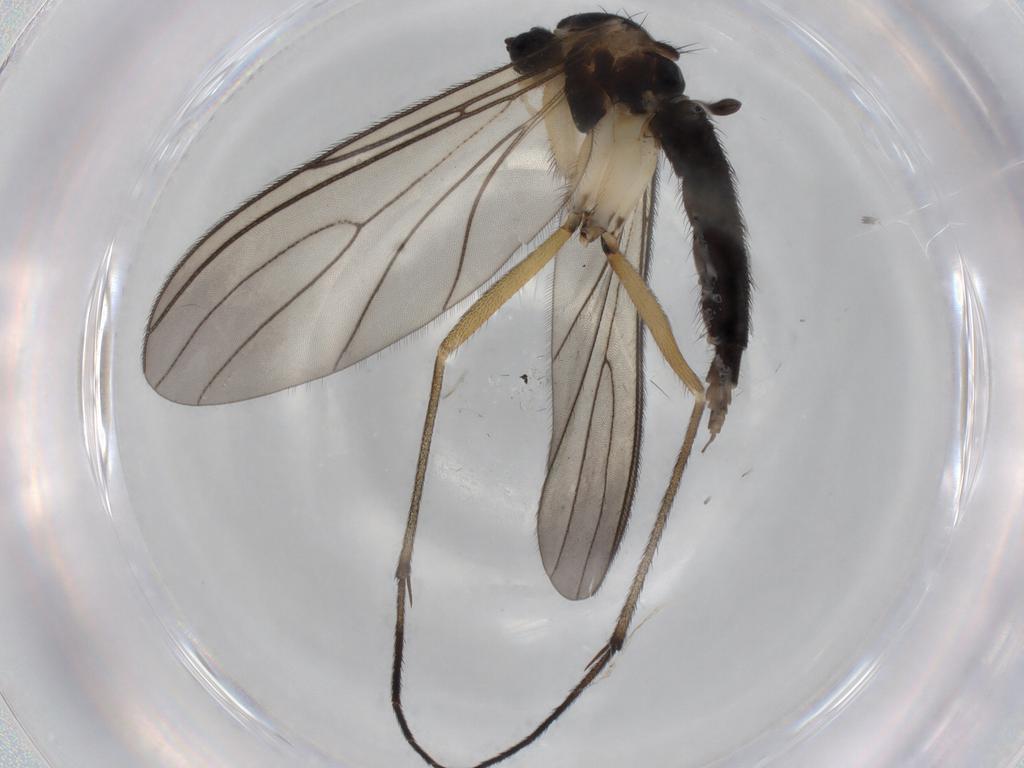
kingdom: Animalia
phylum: Arthropoda
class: Insecta
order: Diptera
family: Sciaridae
